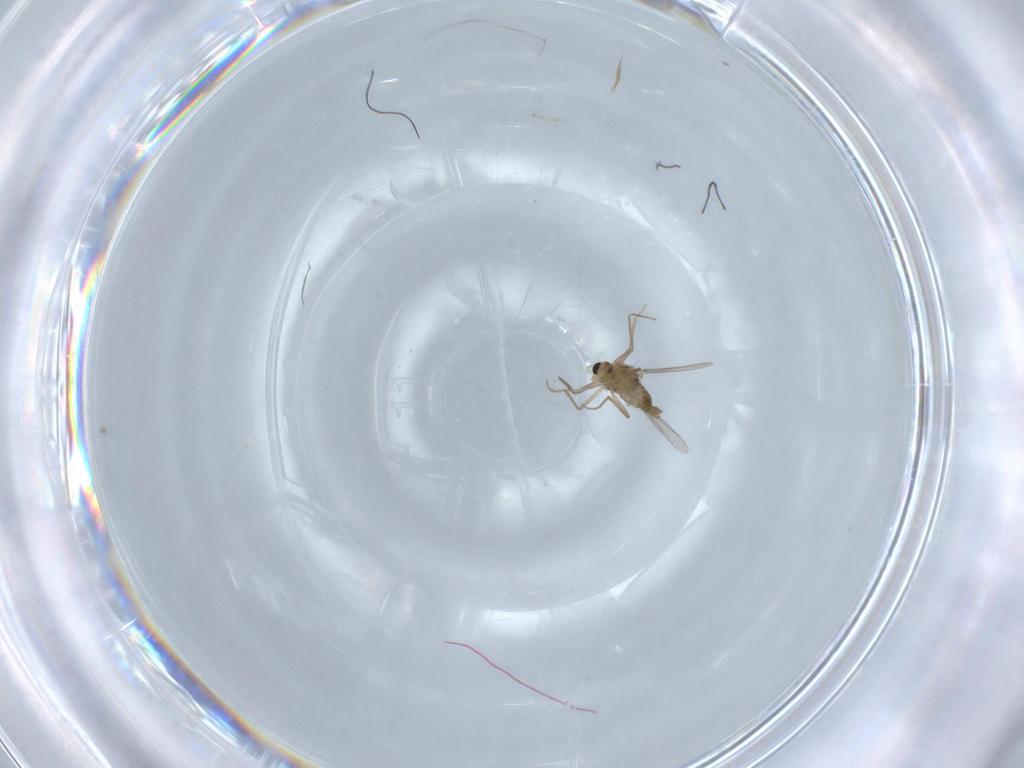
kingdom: Animalia
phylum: Arthropoda
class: Insecta
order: Diptera
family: Chironomidae
